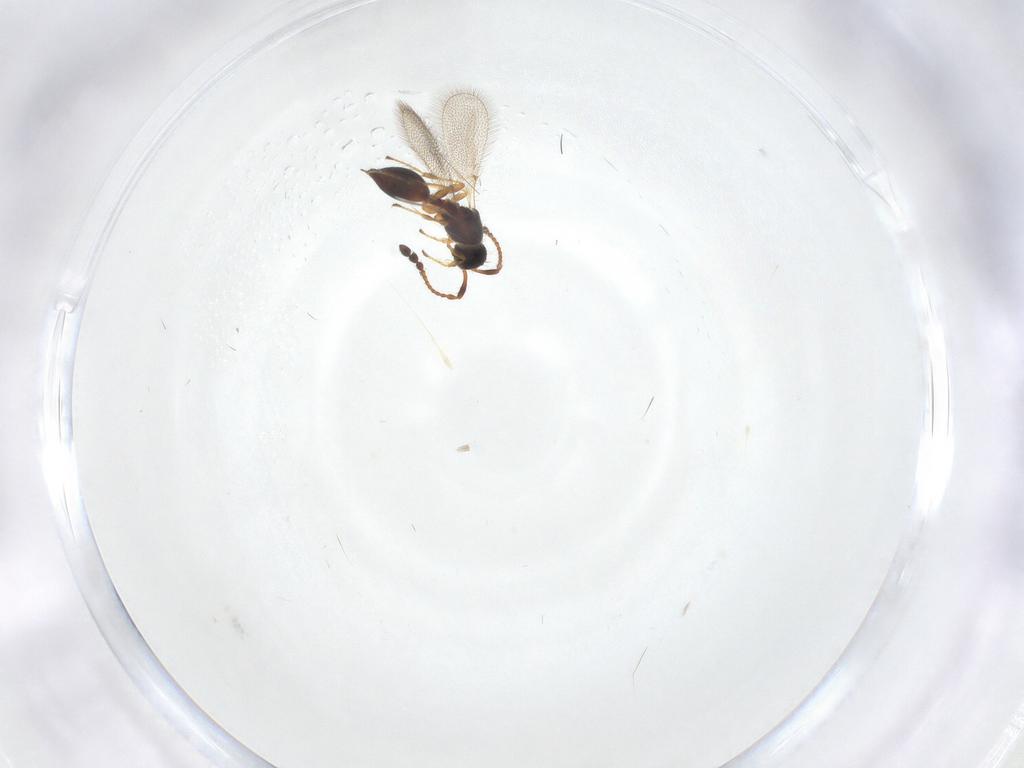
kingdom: Animalia
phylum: Arthropoda
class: Insecta
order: Hymenoptera
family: Diapriidae
